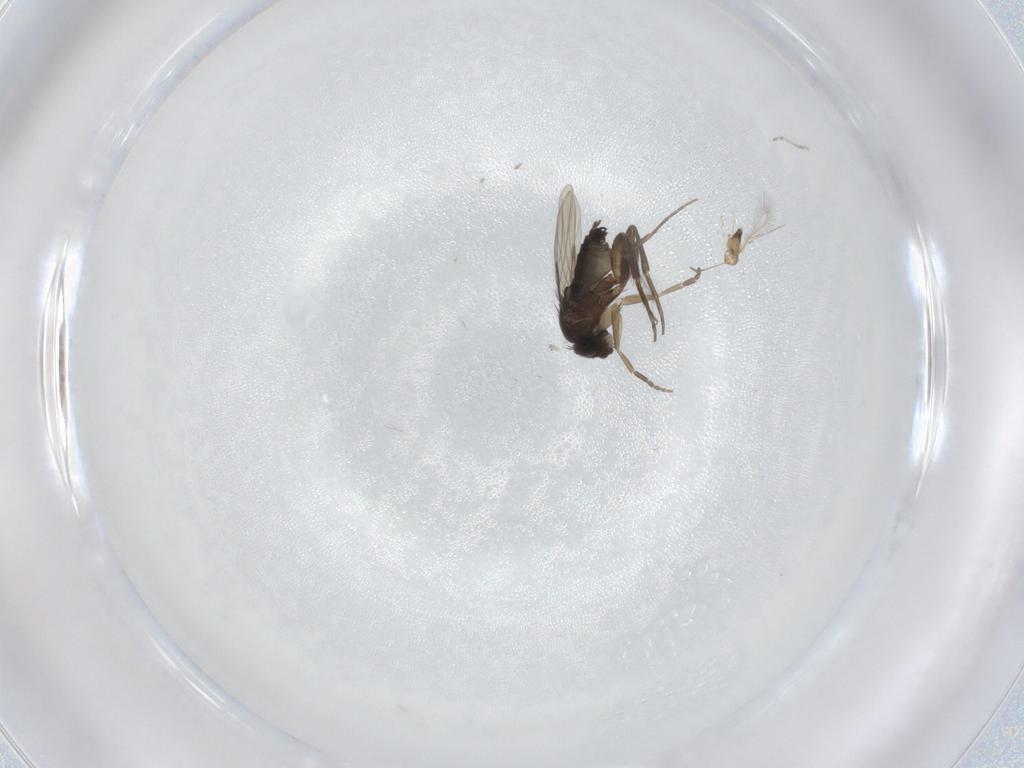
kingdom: Animalia
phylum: Arthropoda
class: Insecta
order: Diptera
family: Phoridae
